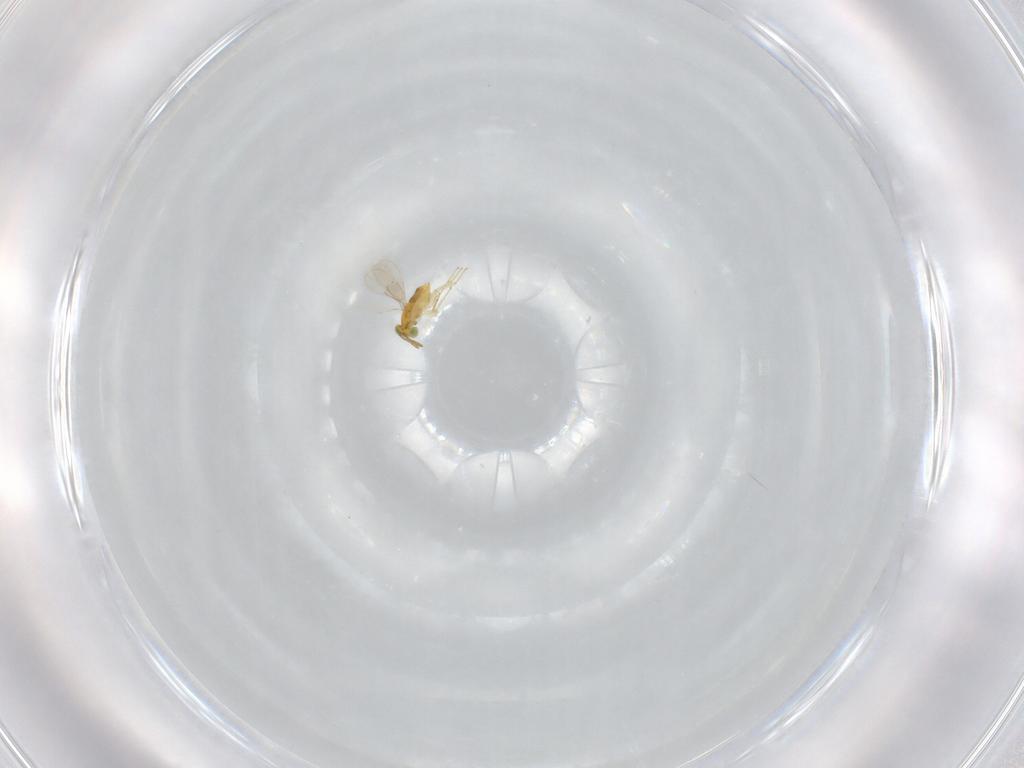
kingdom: Animalia
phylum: Arthropoda
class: Insecta
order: Hymenoptera
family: Aphelinidae
